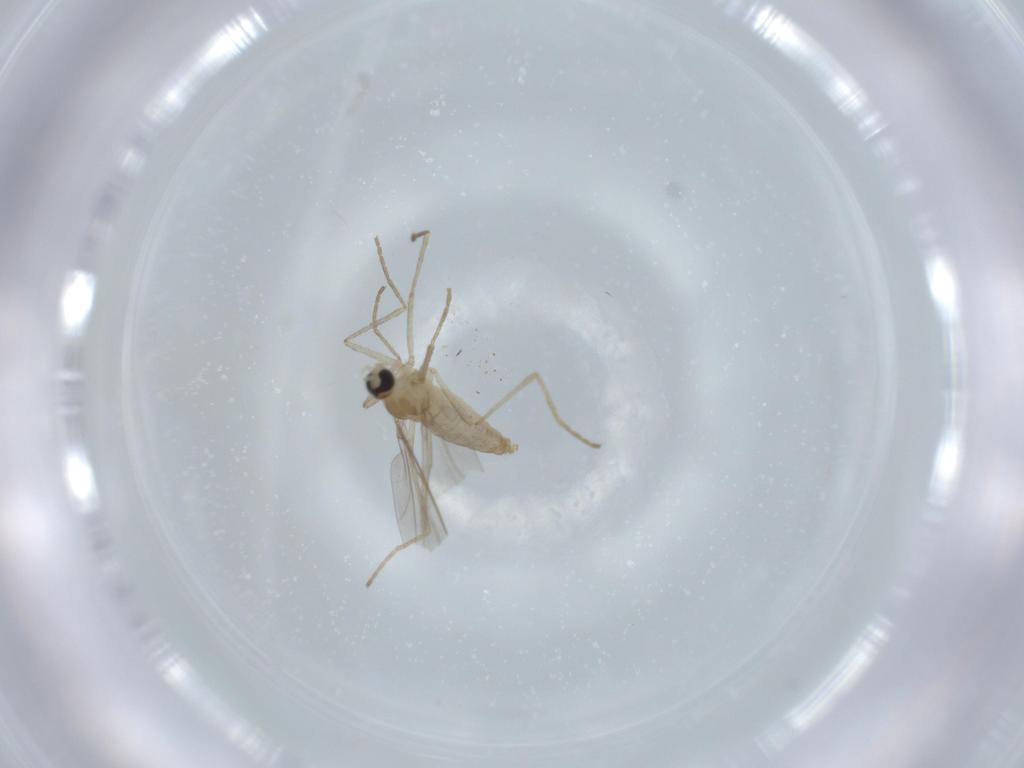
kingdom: Animalia
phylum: Arthropoda
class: Insecta
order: Diptera
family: Cecidomyiidae
